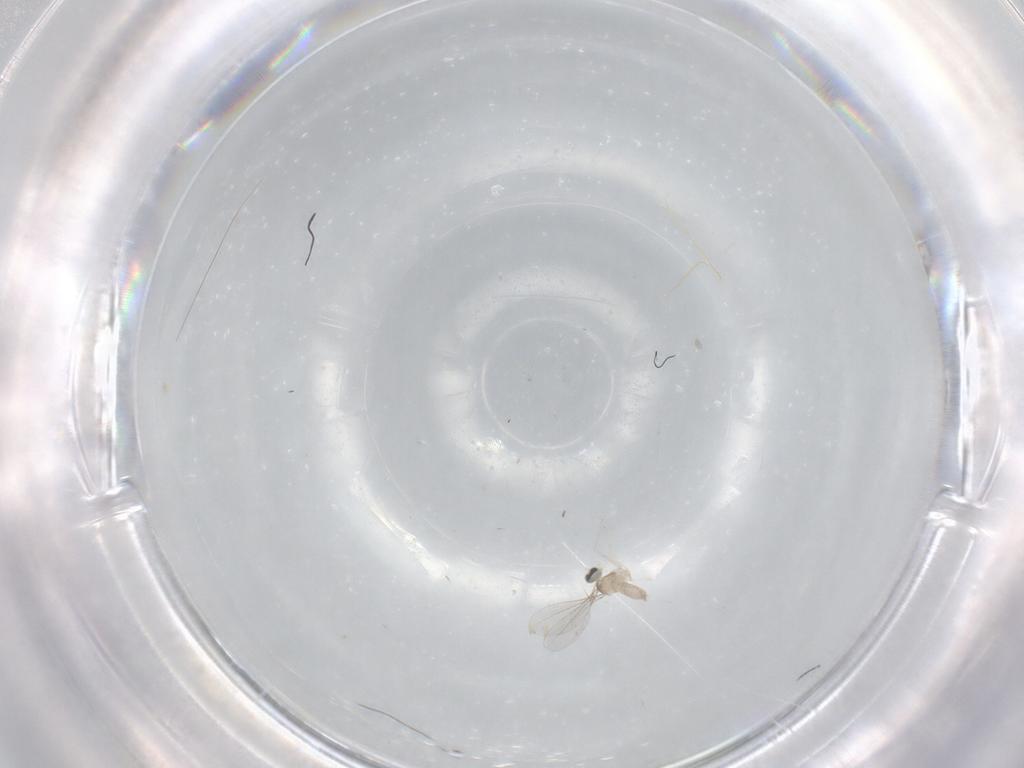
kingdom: Animalia
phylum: Arthropoda
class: Insecta
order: Diptera
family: Cecidomyiidae
